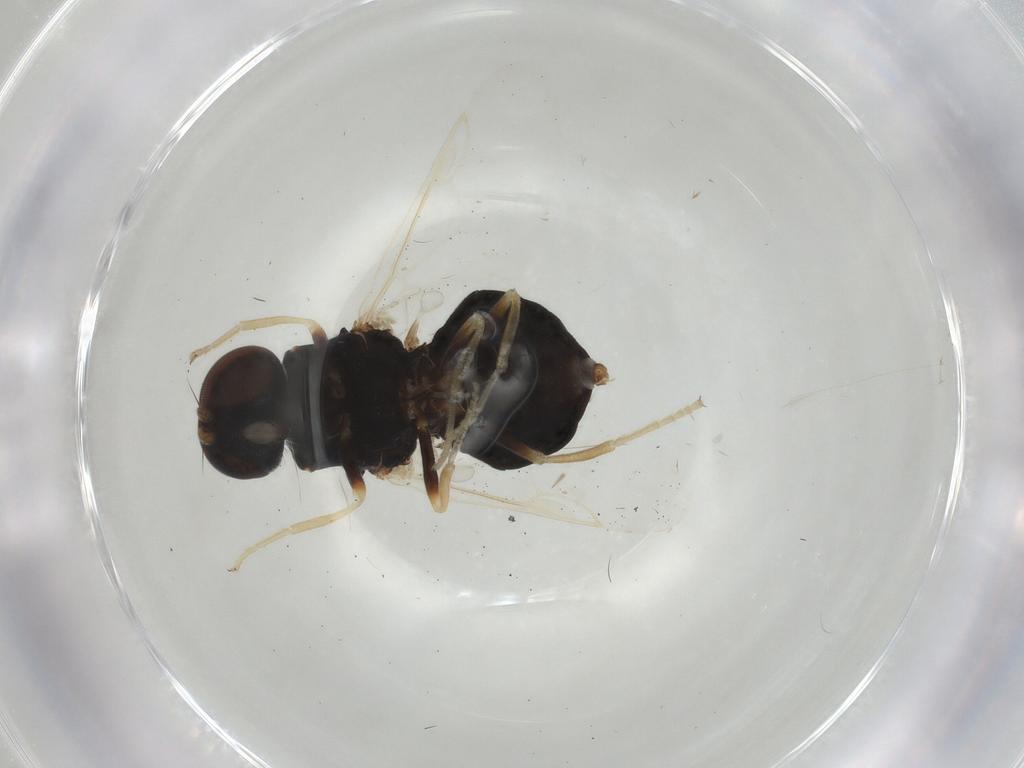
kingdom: Animalia
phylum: Arthropoda
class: Insecta
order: Diptera
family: Stratiomyidae
